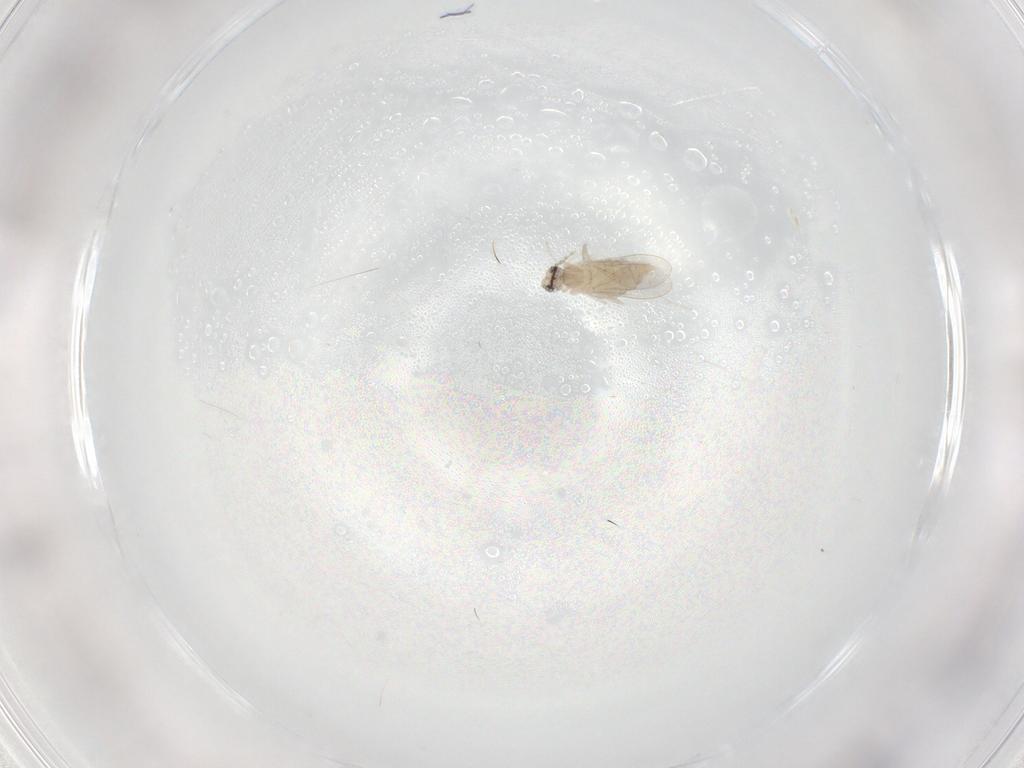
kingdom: Animalia
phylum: Arthropoda
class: Insecta
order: Diptera
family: Cecidomyiidae
